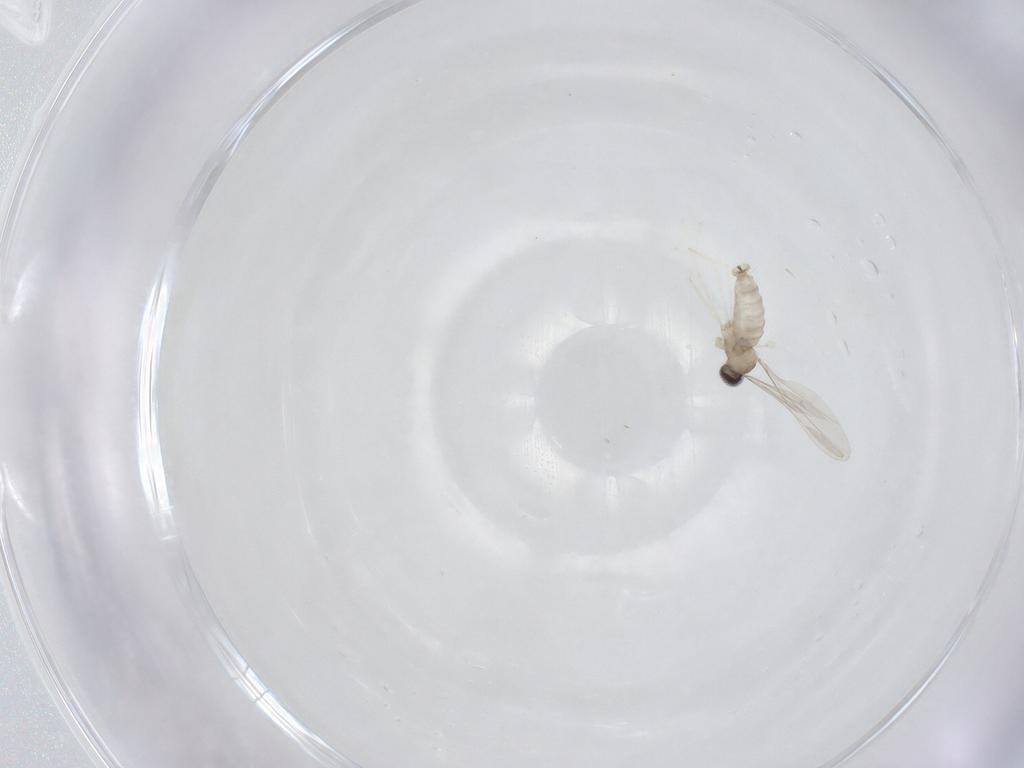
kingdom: Animalia
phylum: Arthropoda
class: Insecta
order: Diptera
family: Cecidomyiidae
